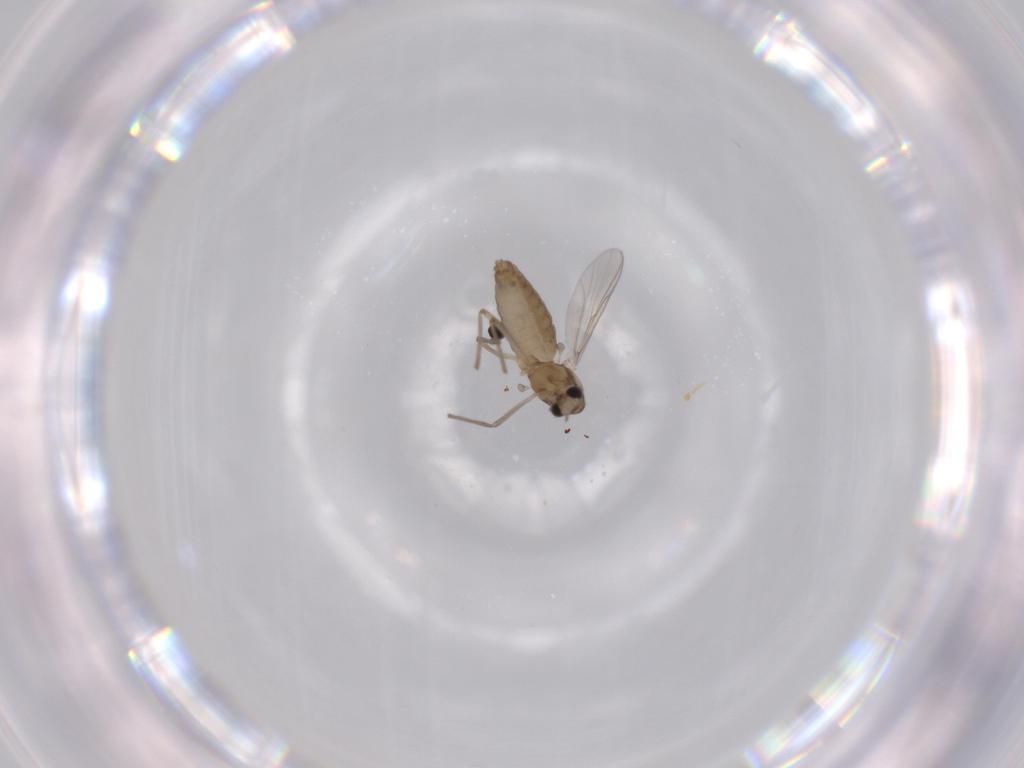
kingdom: Animalia
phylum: Arthropoda
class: Insecta
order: Diptera
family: Chironomidae
